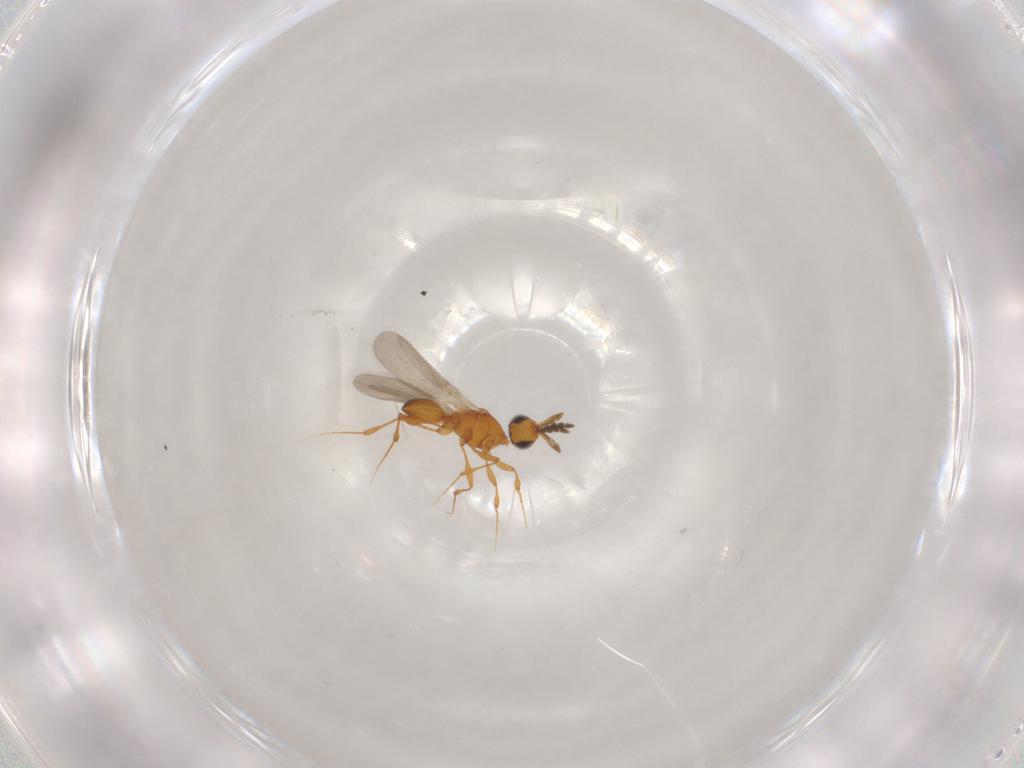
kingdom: Animalia
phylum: Arthropoda
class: Insecta
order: Hymenoptera
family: Platygastridae
